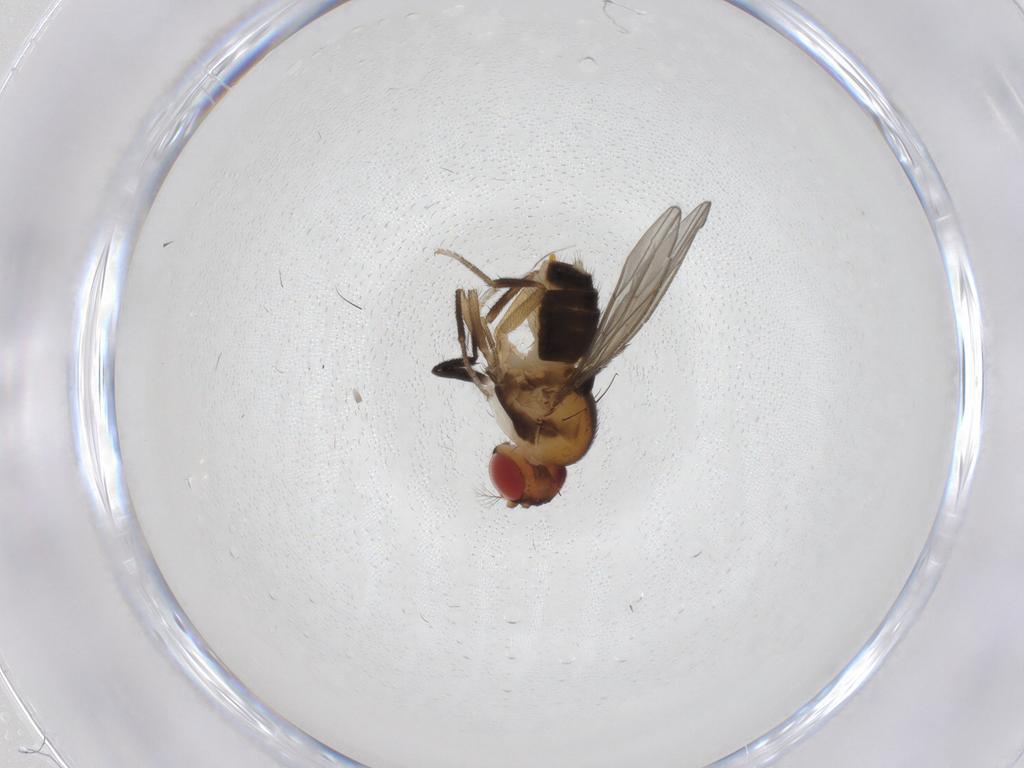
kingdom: Animalia
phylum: Arthropoda
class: Insecta
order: Diptera
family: Drosophilidae
